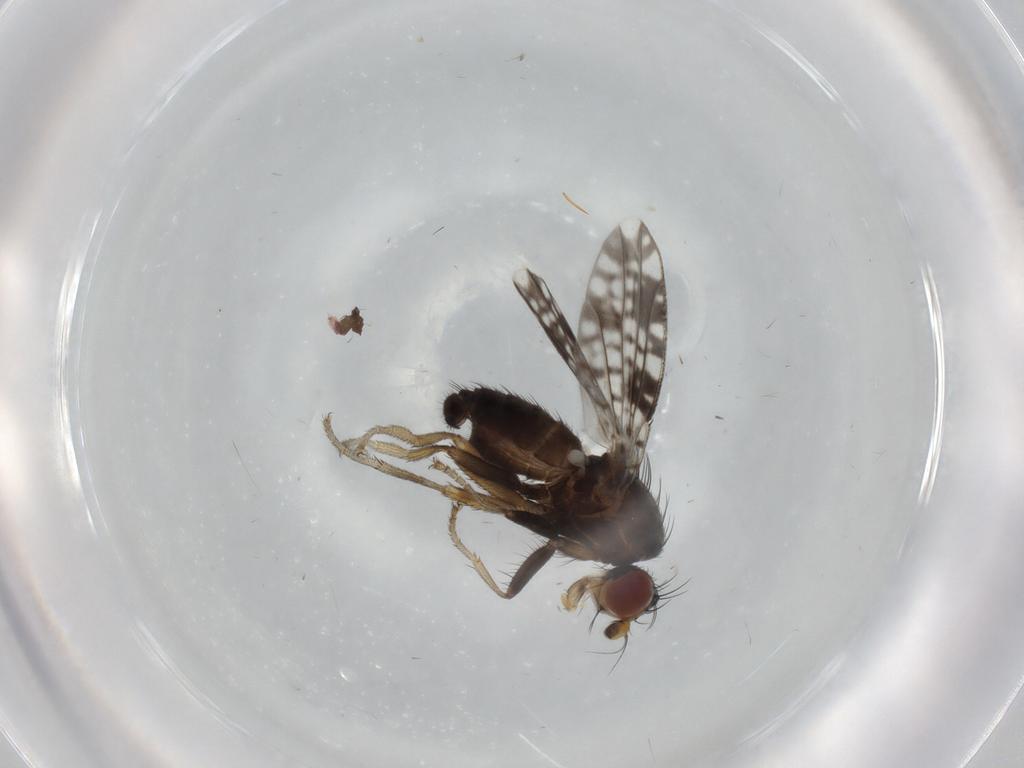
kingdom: Animalia
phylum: Arthropoda
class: Insecta
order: Diptera
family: Tephritidae
